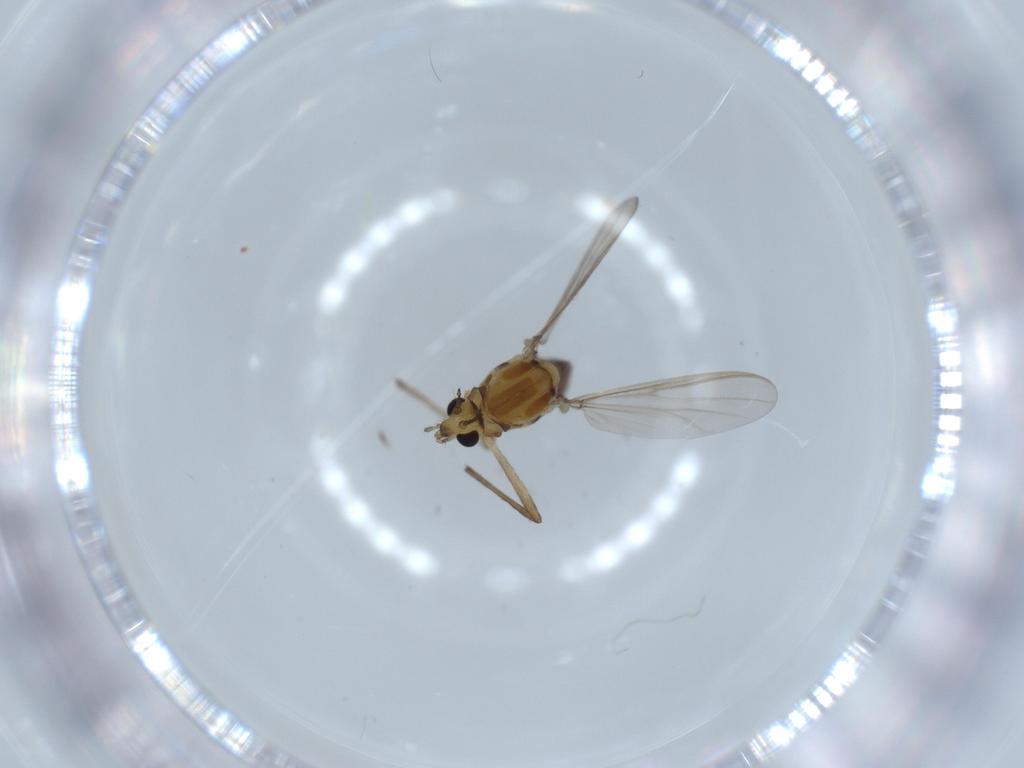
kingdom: Animalia
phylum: Arthropoda
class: Insecta
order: Diptera
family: Chironomidae
